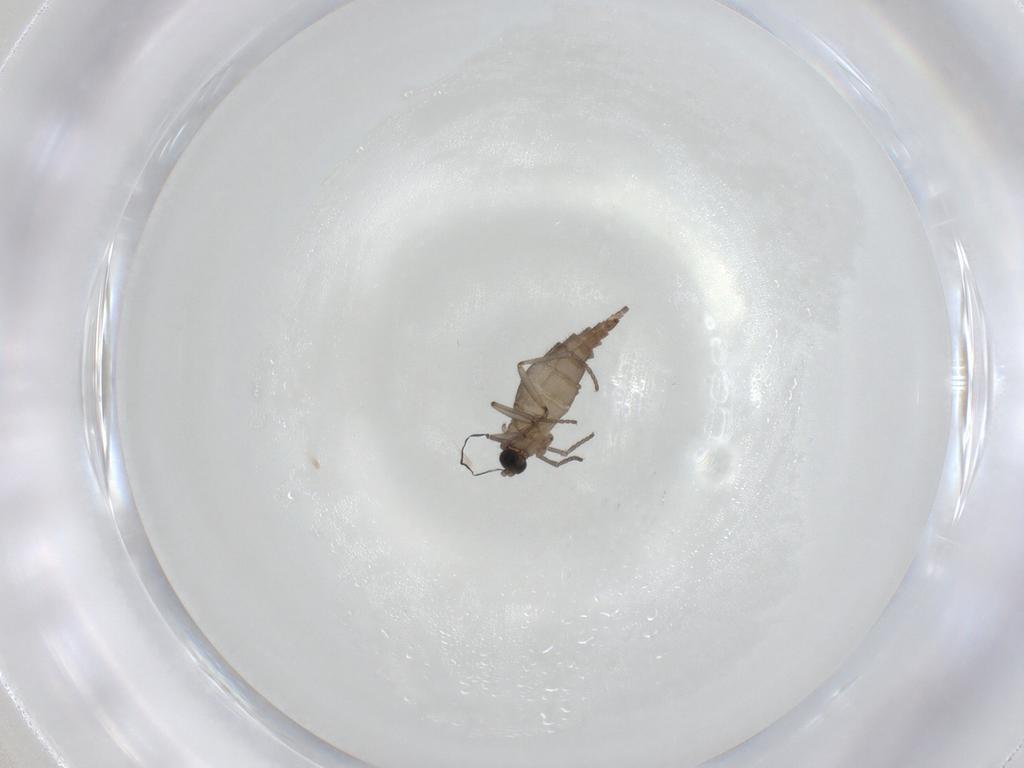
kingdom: Animalia
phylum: Arthropoda
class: Insecta
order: Diptera
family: Sciaridae
